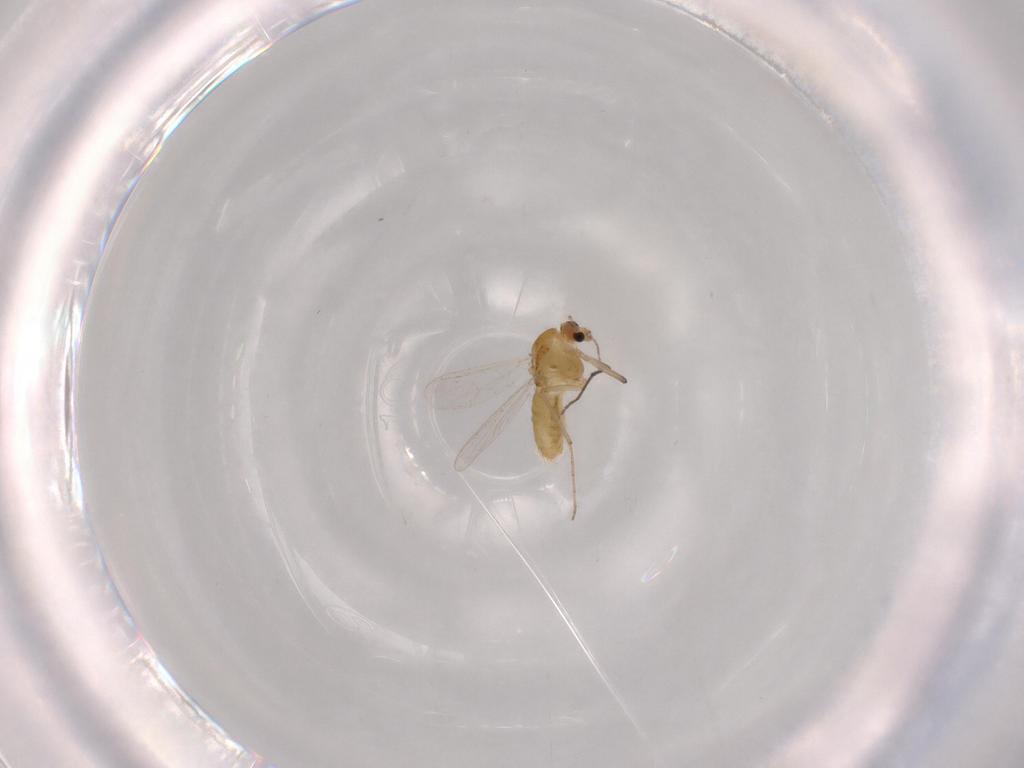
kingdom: Animalia
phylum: Arthropoda
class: Insecta
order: Diptera
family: Chironomidae
